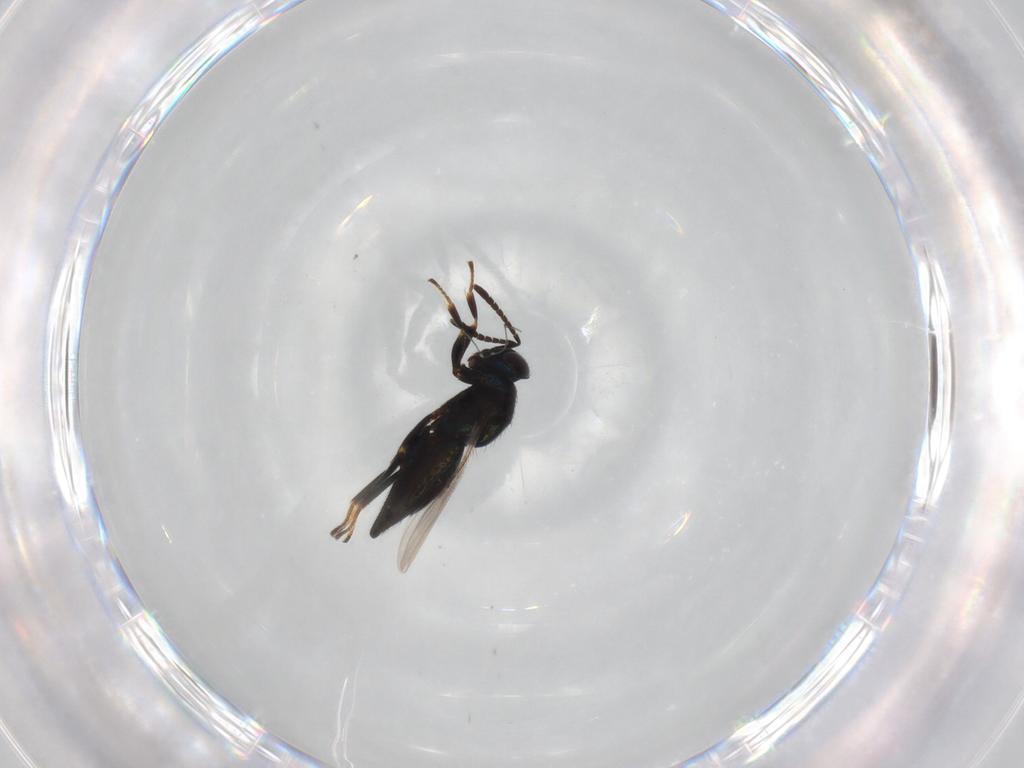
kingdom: Animalia
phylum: Arthropoda
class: Insecta
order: Hymenoptera
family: Encyrtidae
